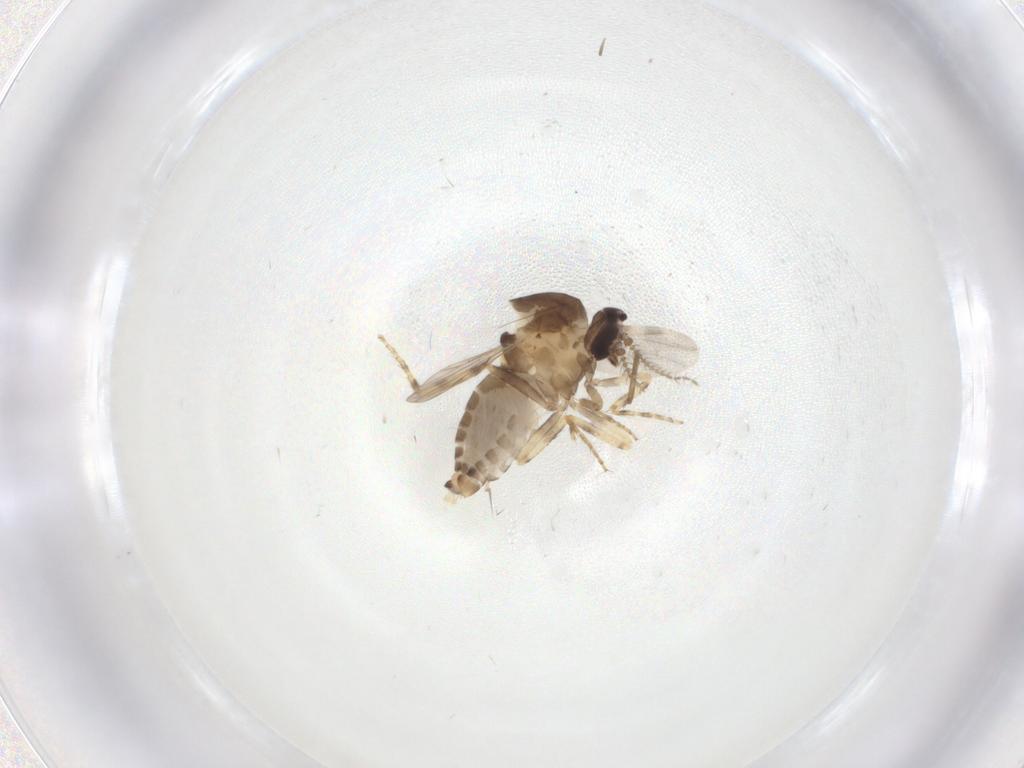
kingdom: Animalia
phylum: Arthropoda
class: Insecta
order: Diptera
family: Ceratopogonidae
